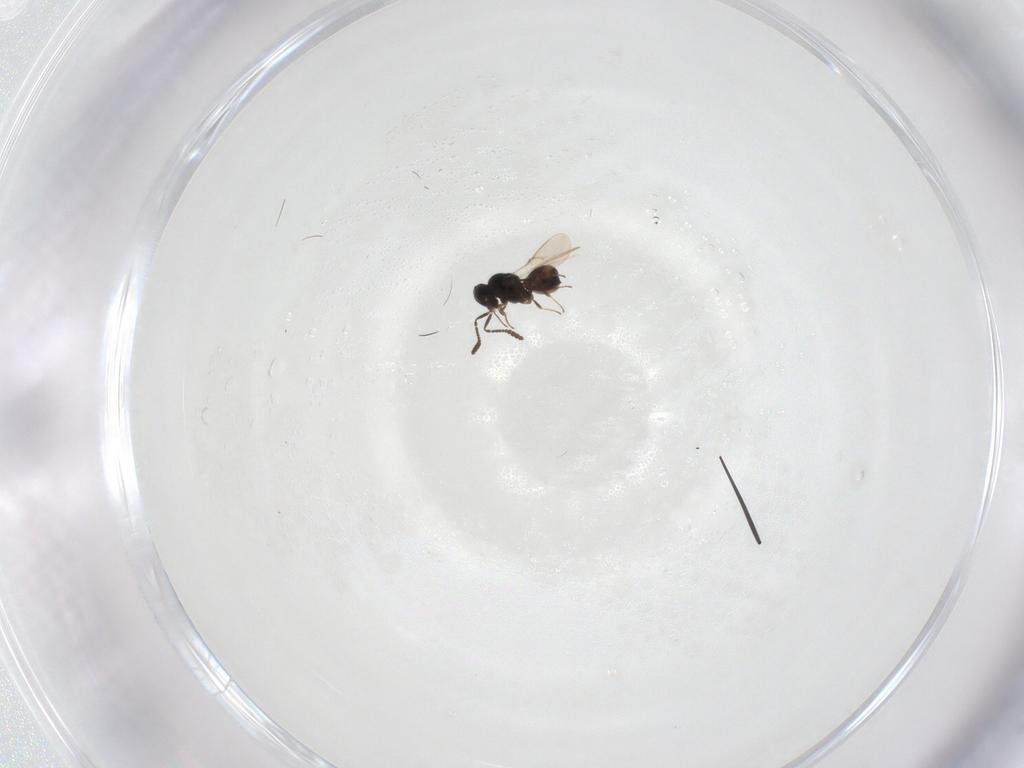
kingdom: Animalia
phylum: Arthropoda
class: Insecta
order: Hymenoptera
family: Scelionidae
